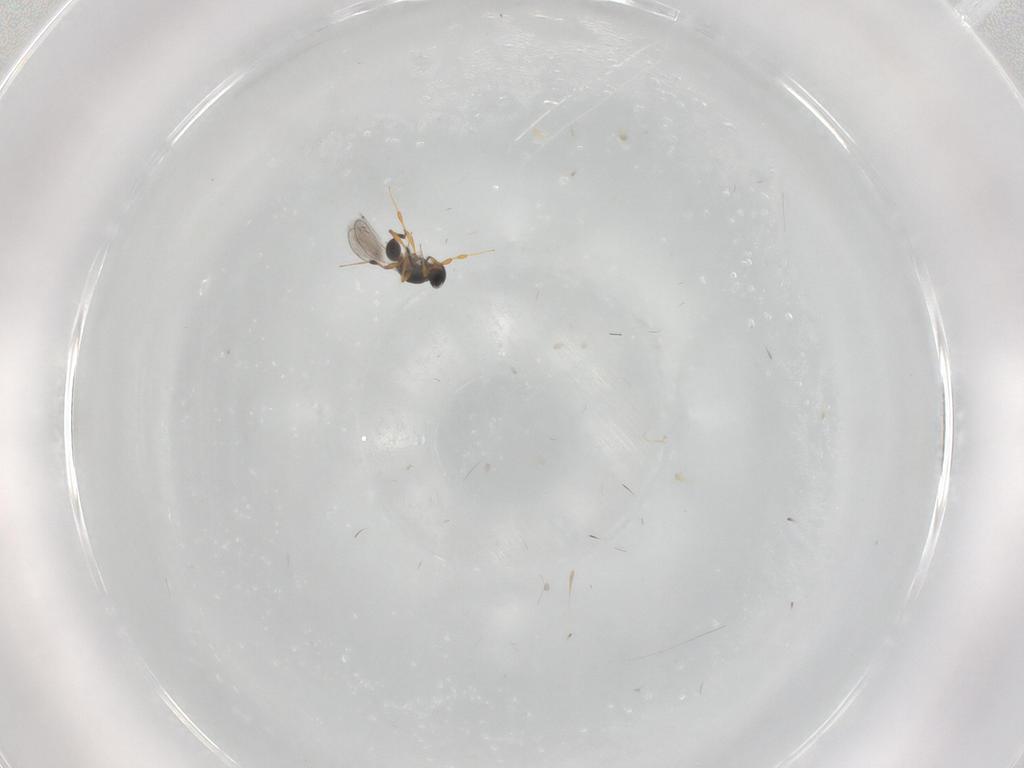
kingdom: Animalia
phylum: Arthropoda
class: Insecta
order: Hymenoptera
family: Platygastridae
